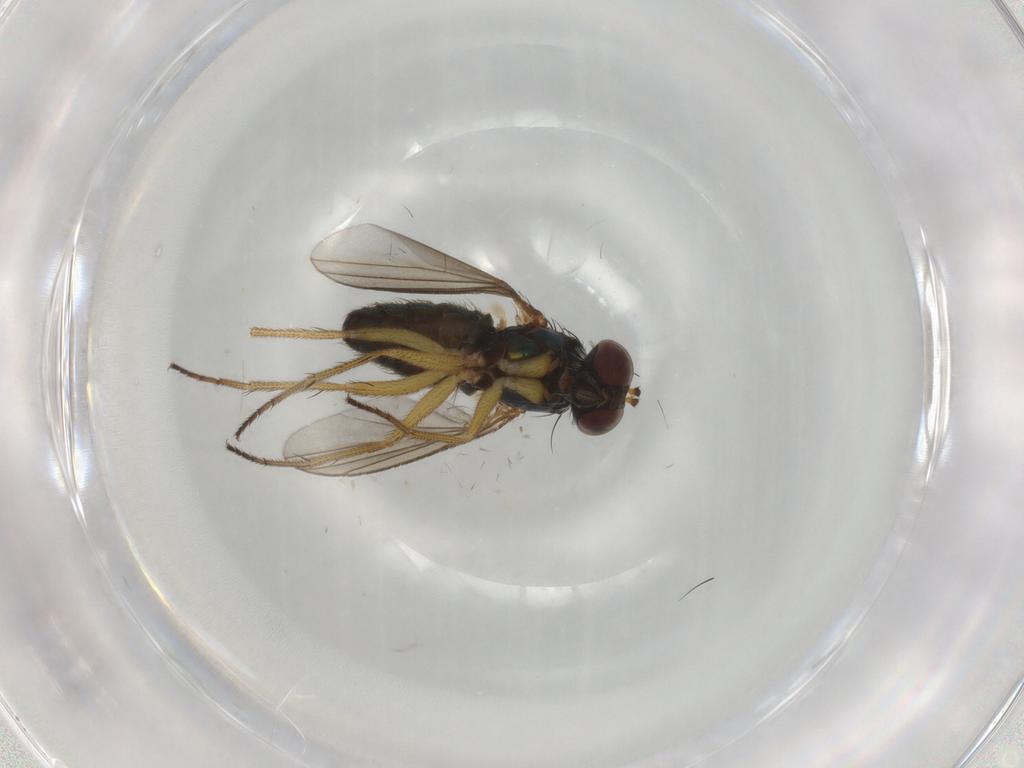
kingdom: Animalia
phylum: Arthropoda
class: Insecta
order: Diptera
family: Dolichopodidae
